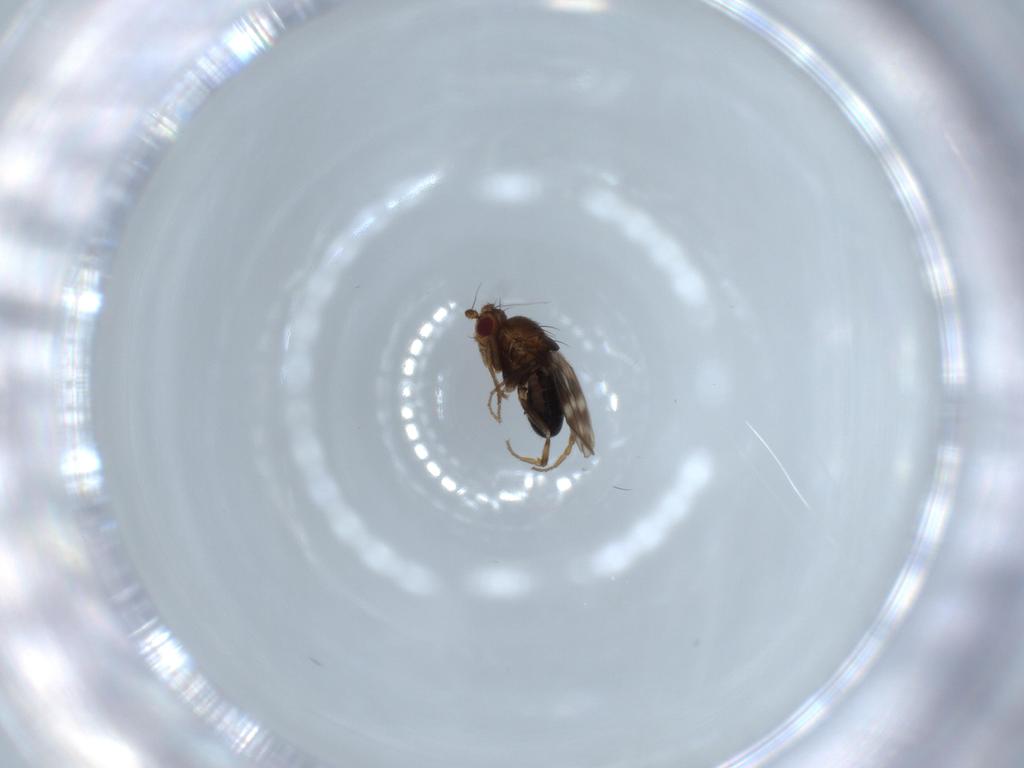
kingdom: Animalia
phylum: Arthropoda
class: Insecta
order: Diptera
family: Sphaeroceridae
